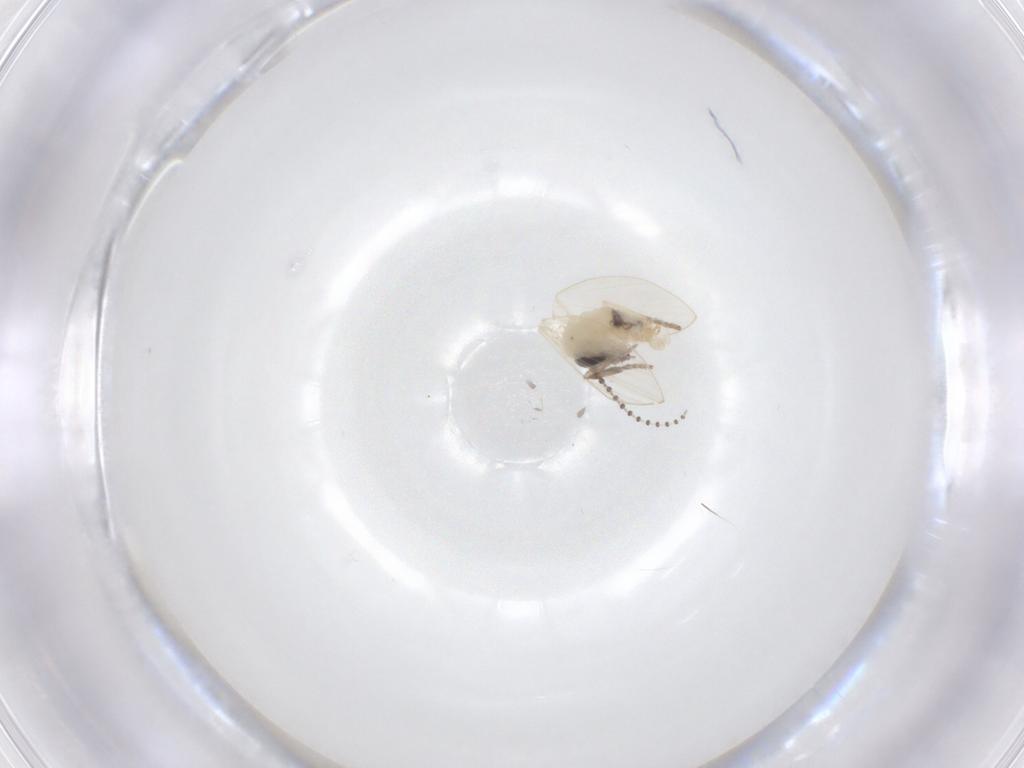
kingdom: Animalia
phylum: Arthropoda
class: Insecta
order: Diptera
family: Psychodidae
